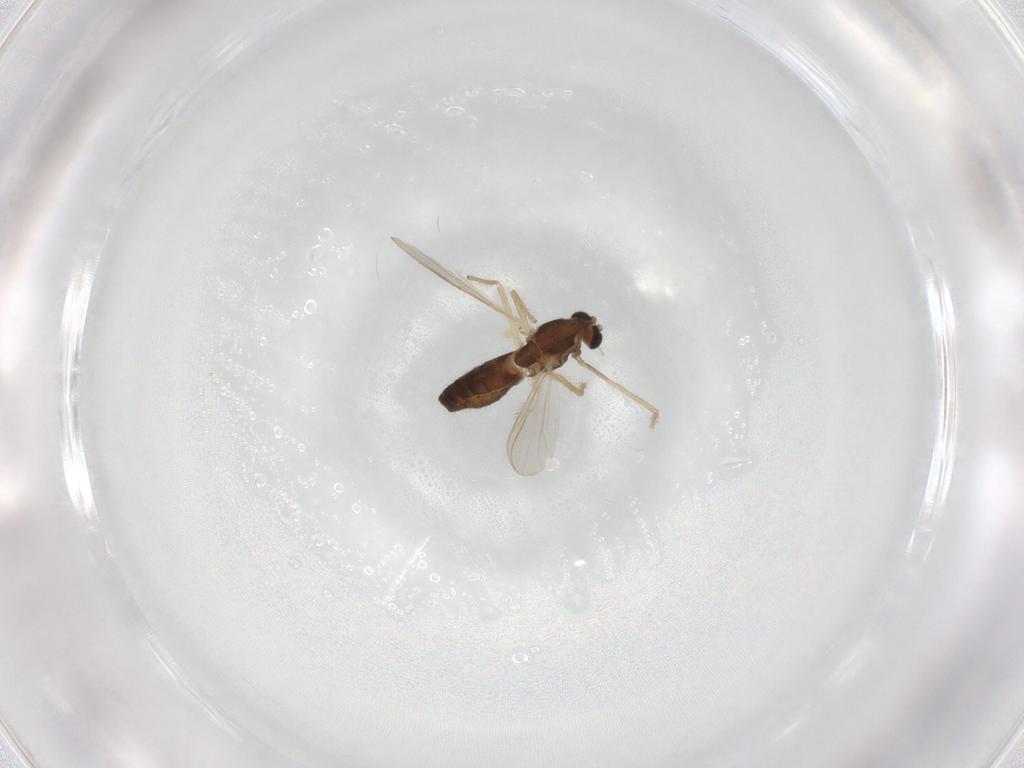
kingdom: Animalia
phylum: Arthropoda
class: Insecta
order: Diptera
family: Chironomidae
